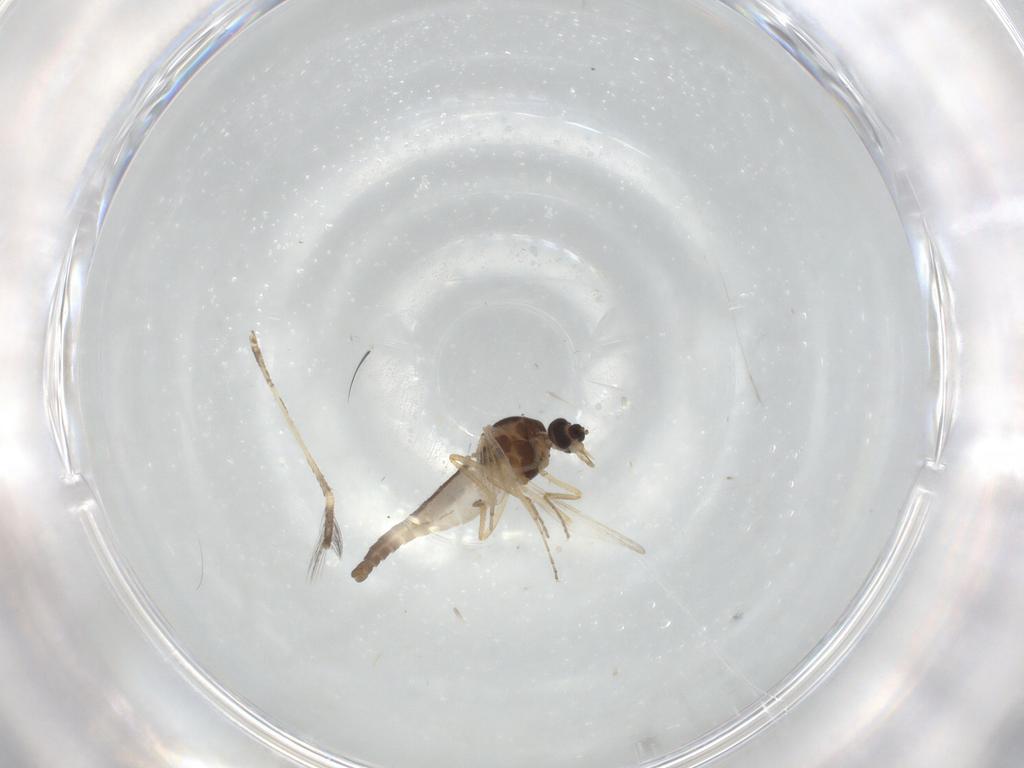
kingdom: Animalia
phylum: Arthropoda
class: Insecta
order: Diptera
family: Culicidae
